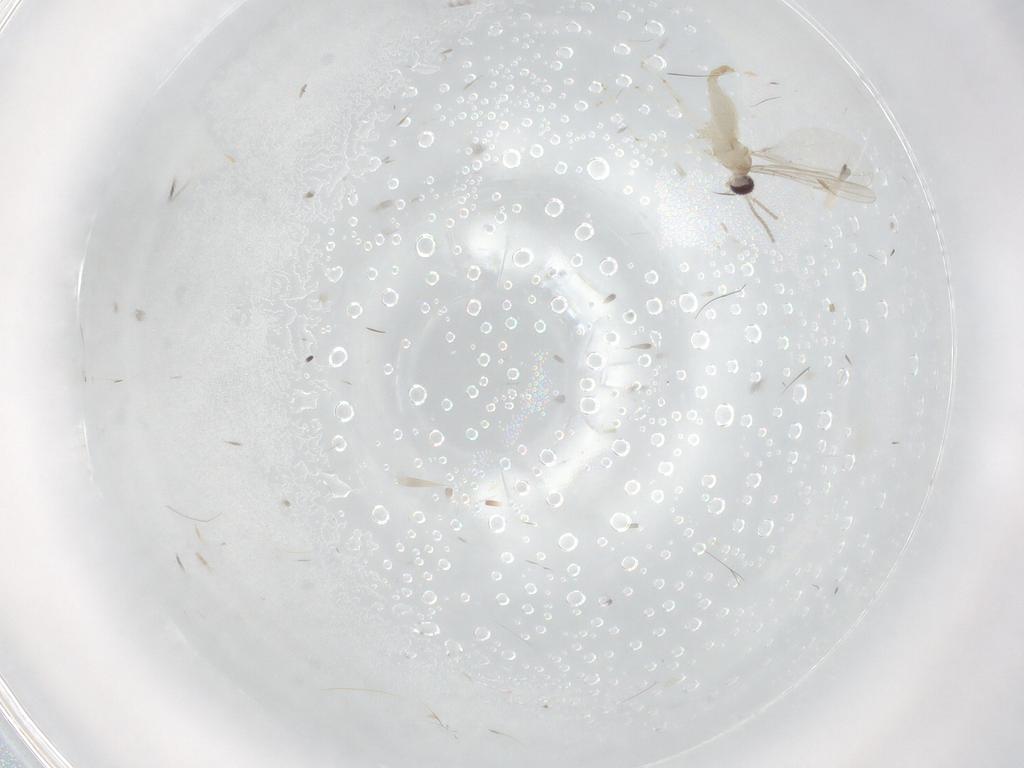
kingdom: Animalia
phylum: Arthropoda
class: Insecta
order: Diptera
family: Cecidomyiidae
